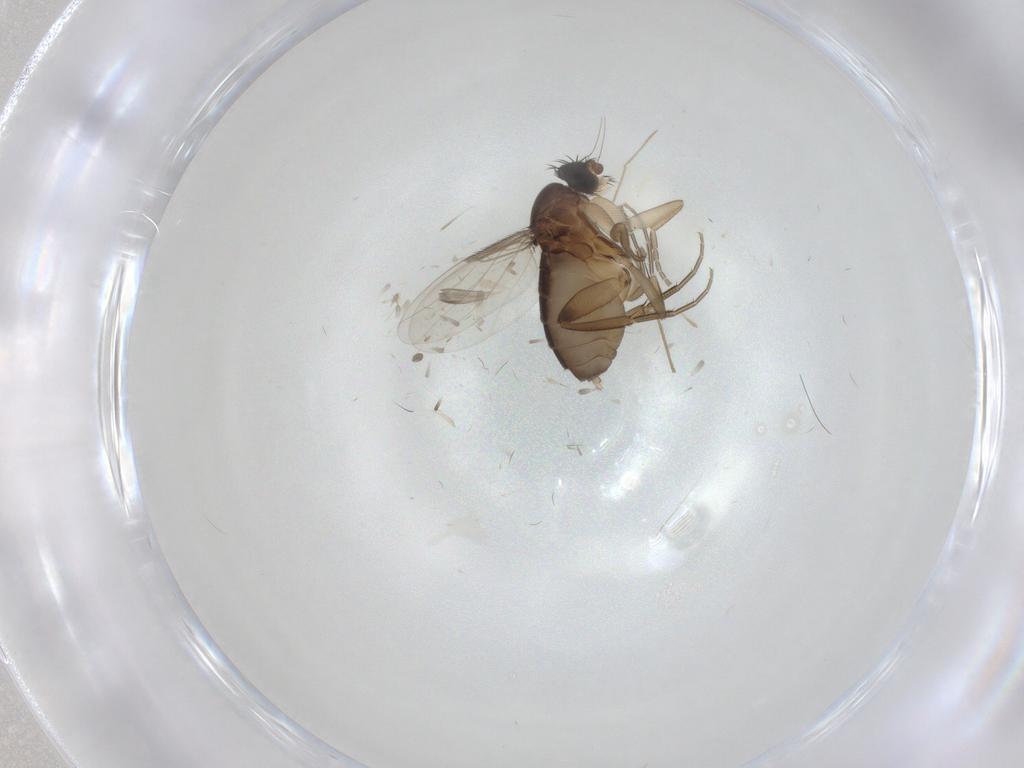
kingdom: Animalia
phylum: Arthropoda
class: Insecta
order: Diptera
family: Phoridae
